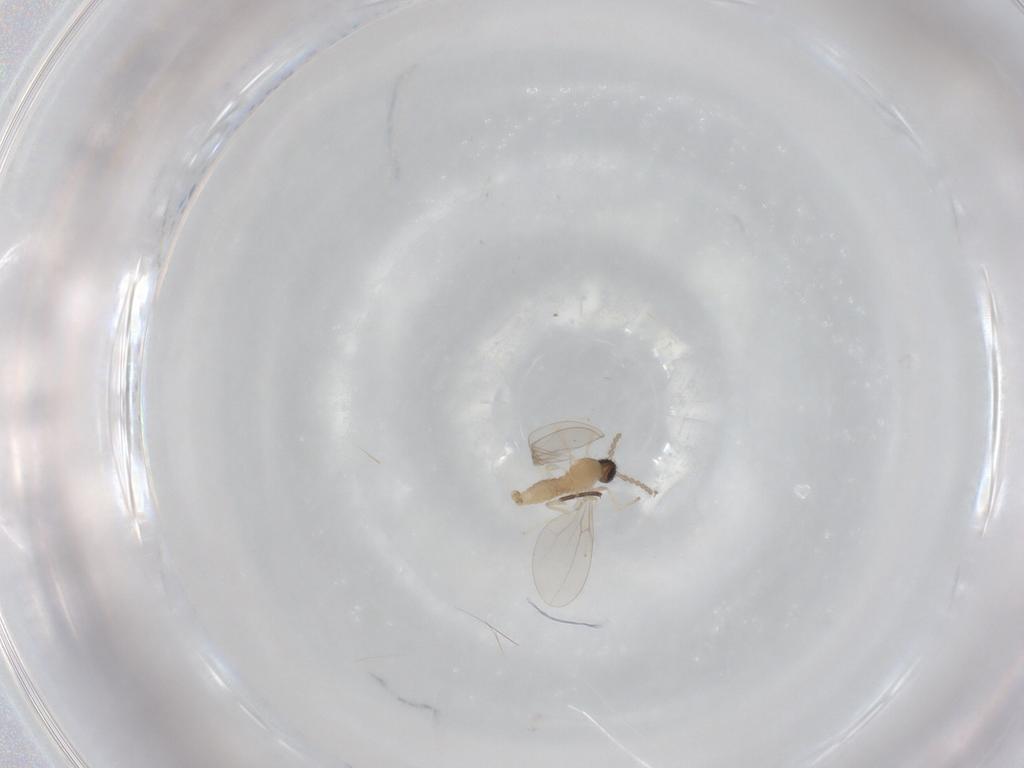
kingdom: Animalia
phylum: Arthropoda
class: Insecta
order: Diptera
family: Cecidomyiidae
